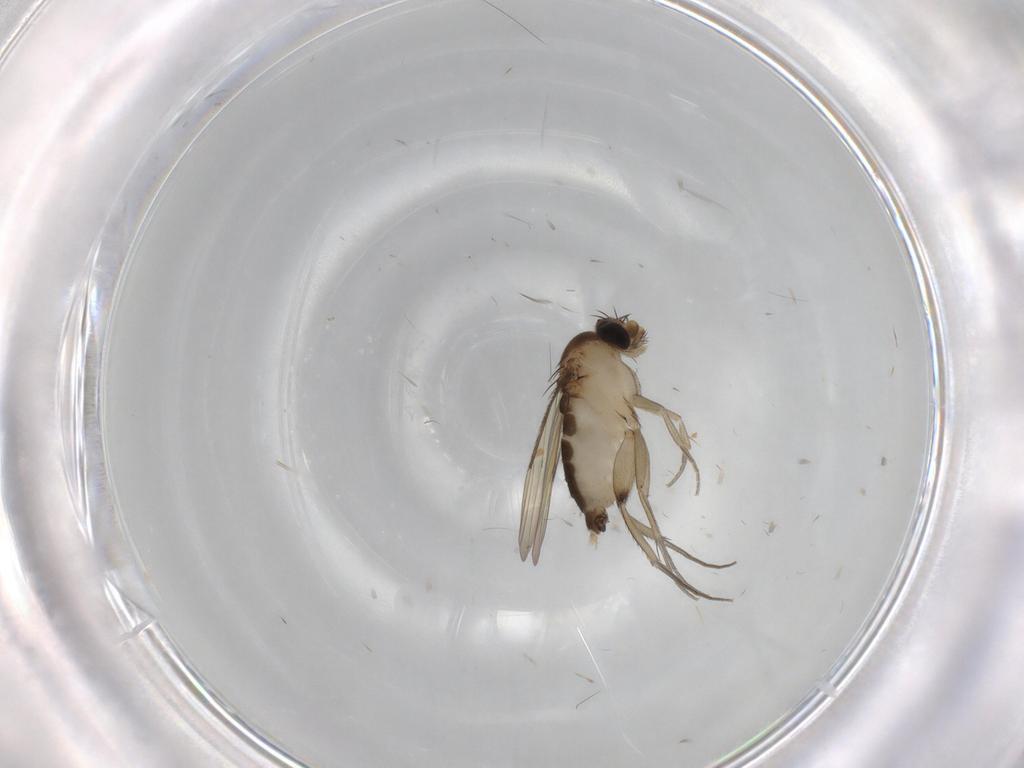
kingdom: Animalia
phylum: Arthropoda
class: Insecta
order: Diptera
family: Phoridae
